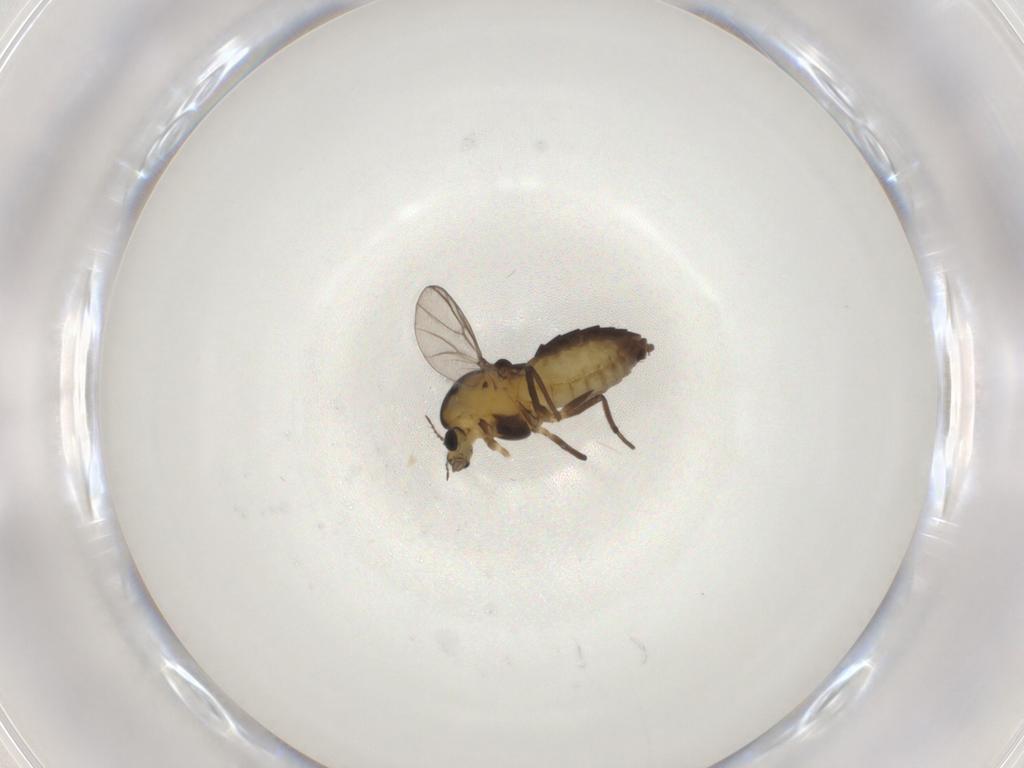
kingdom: Animalia
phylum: Arthropoda
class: Insecta
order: Diptera
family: Chironomidae
